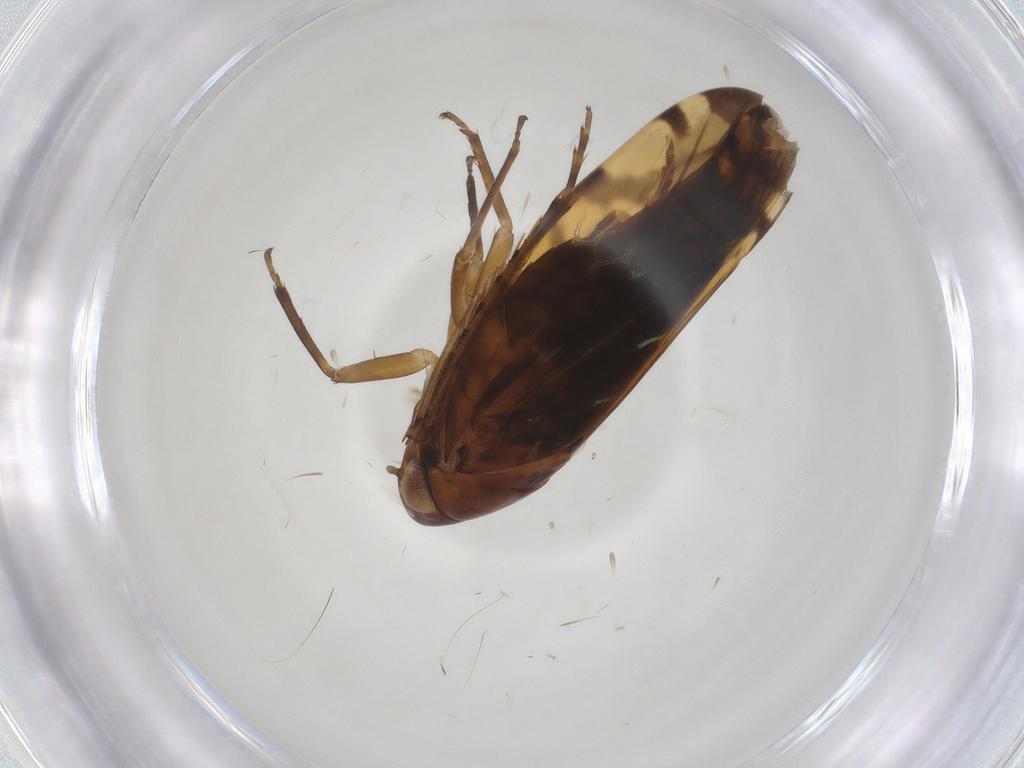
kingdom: Animalia
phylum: Arthropoda
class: Insecta
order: Hemiptera
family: Cicadellidae
